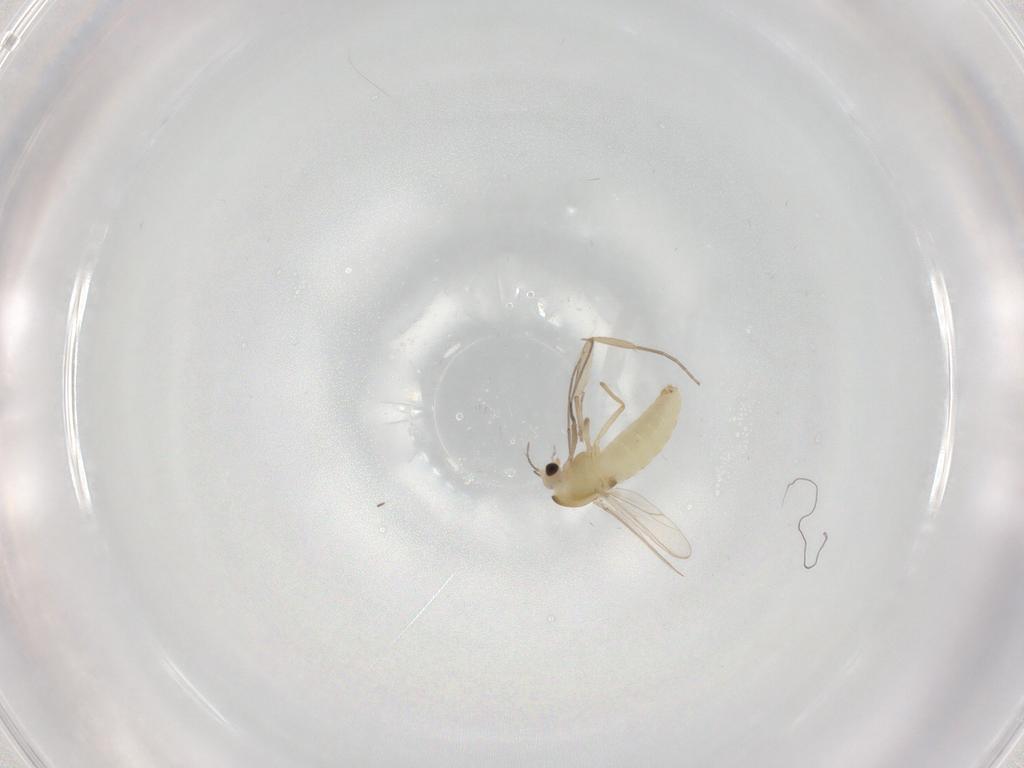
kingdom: Animalia
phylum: Arthropoda
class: Insecta
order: Diptera
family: Chironomidae
